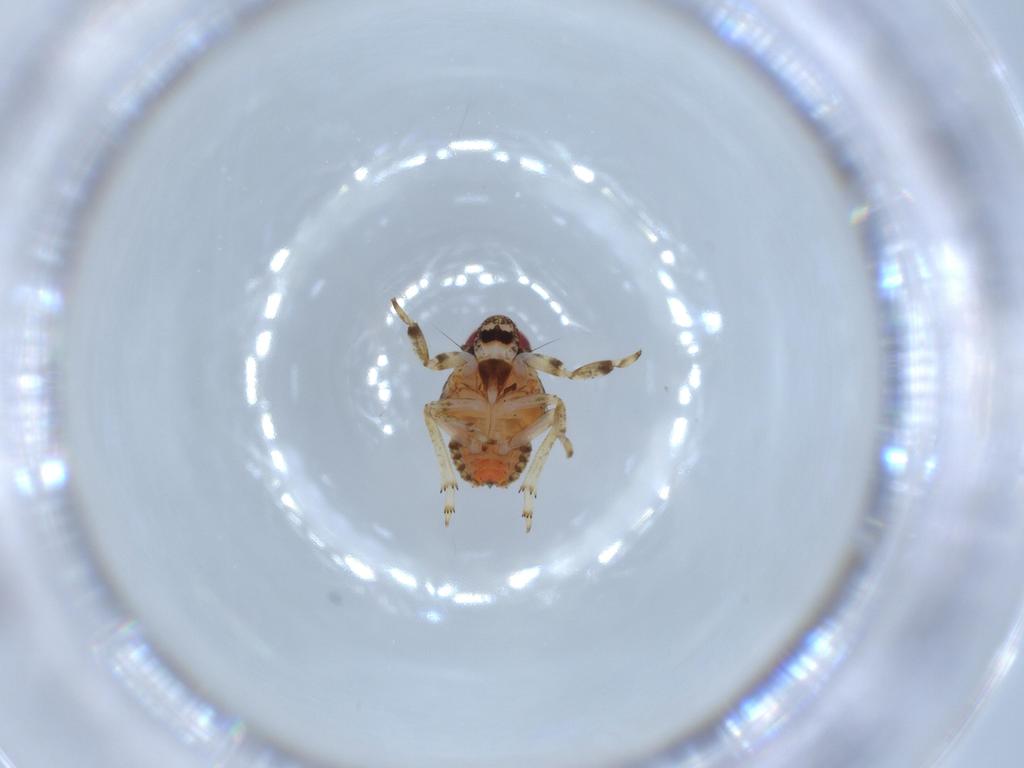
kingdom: Animalia
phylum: Arthropoda
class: Insecta
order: Hemiptera
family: Issidae
